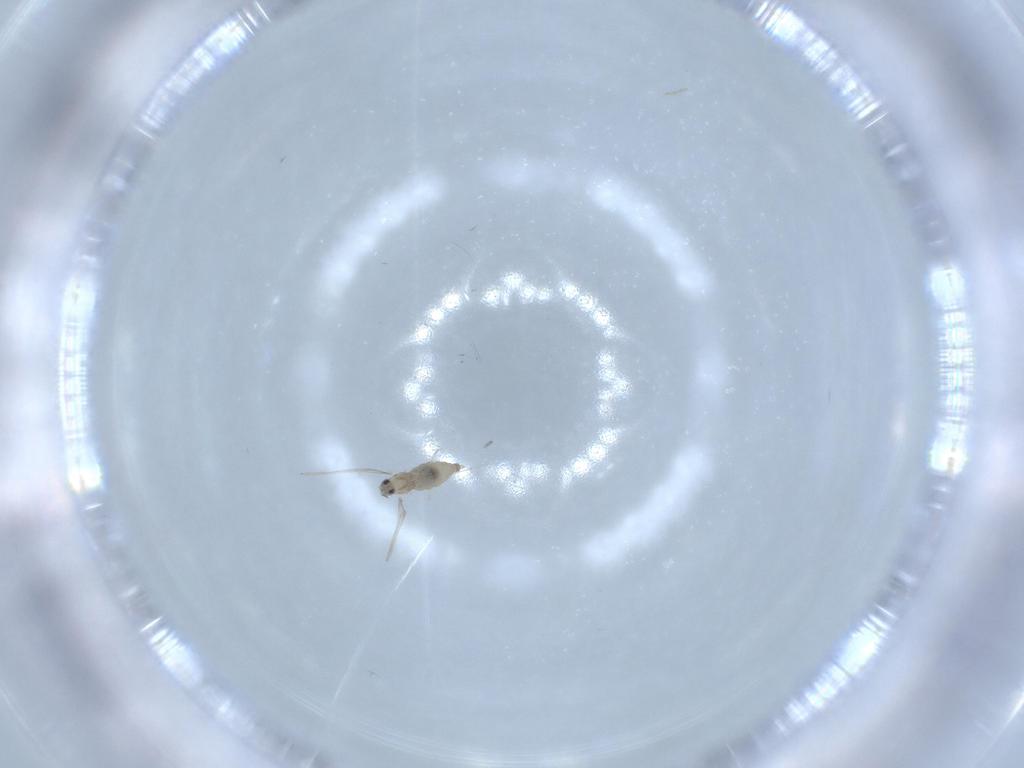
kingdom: Animalia
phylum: Arthropoda
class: Insecta
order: Diptera
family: Cecidomyiidae
